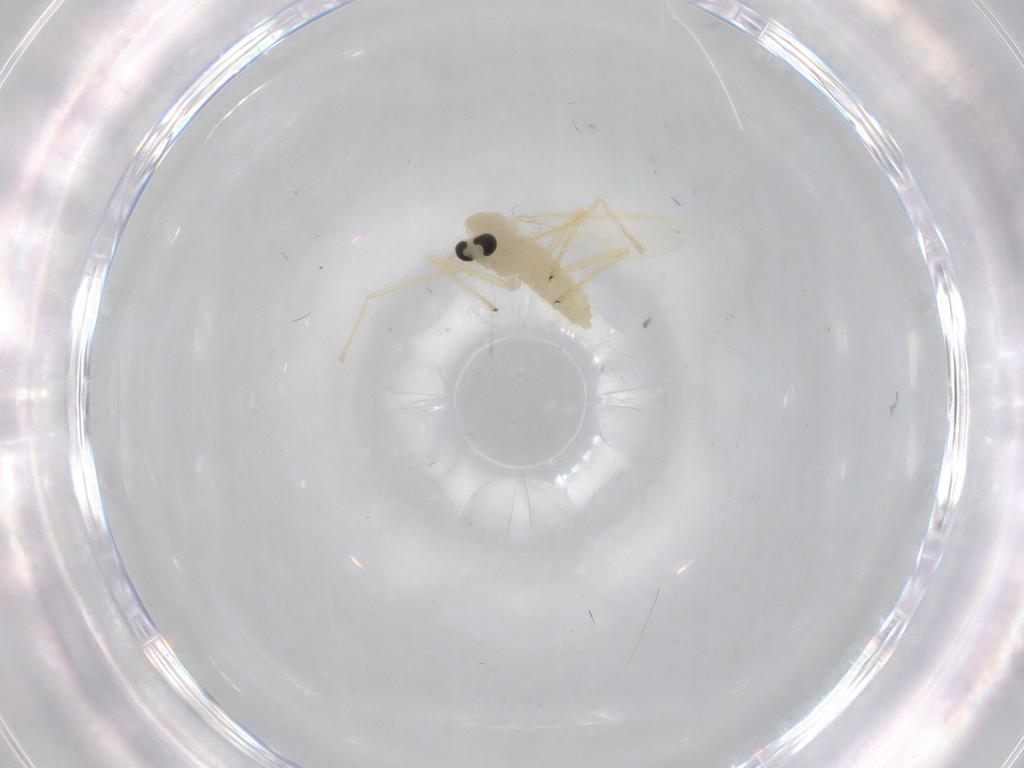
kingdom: Animalia
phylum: Arthropoda
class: Insecta
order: Diptera
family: Chironomidae
